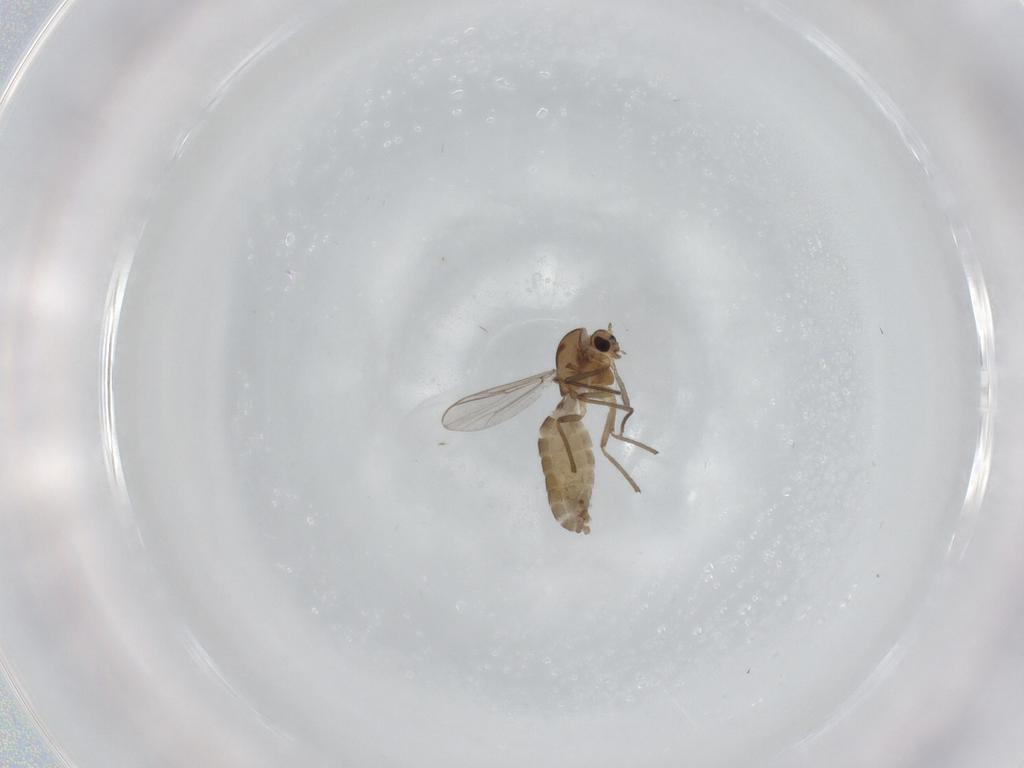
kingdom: Animalia
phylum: Arthropoda
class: Insecta
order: Diptera
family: Chironomidae
